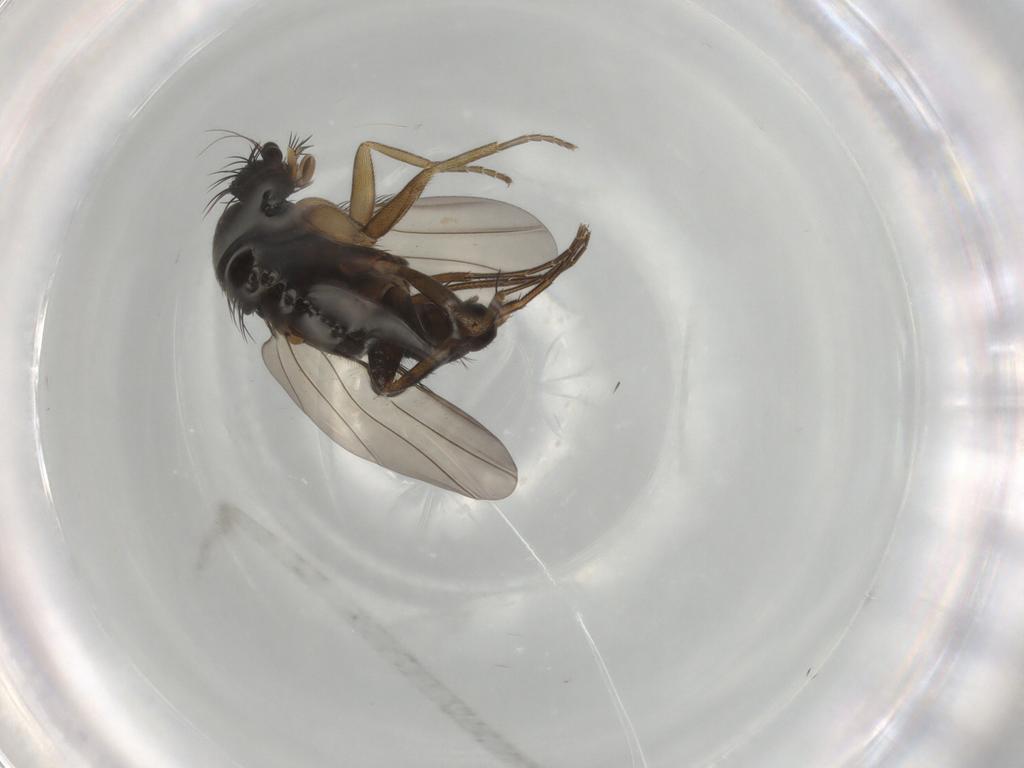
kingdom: Animalia
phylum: Arthropoda
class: Insecta
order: Diptera
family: Phoridae
